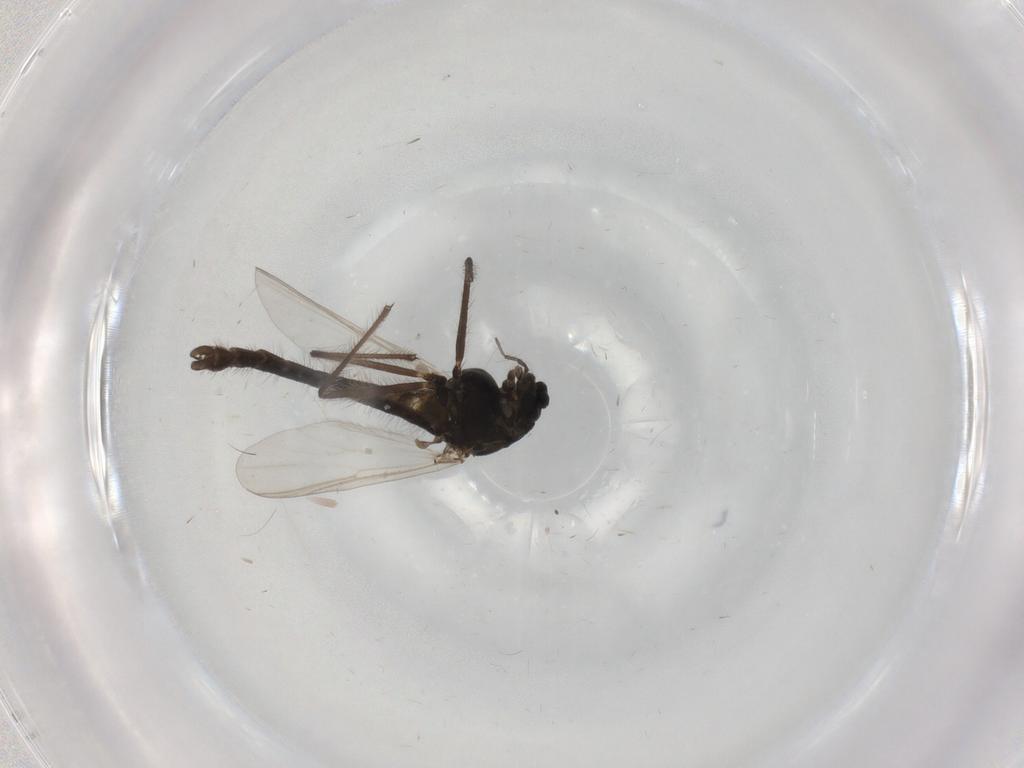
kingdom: Animalia
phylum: Arthropoda
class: Insecta
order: Diptera
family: Chironomidae
